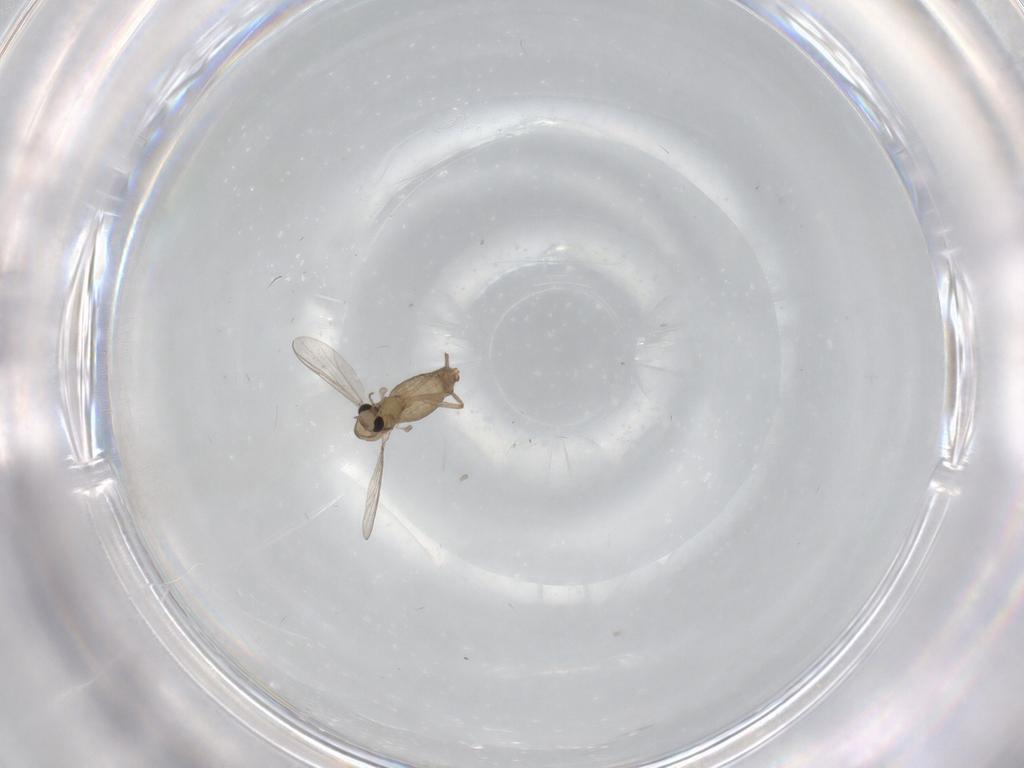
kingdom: Animalia
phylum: Arthropoda
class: Insecta
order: Diptera
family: Chironomidae
